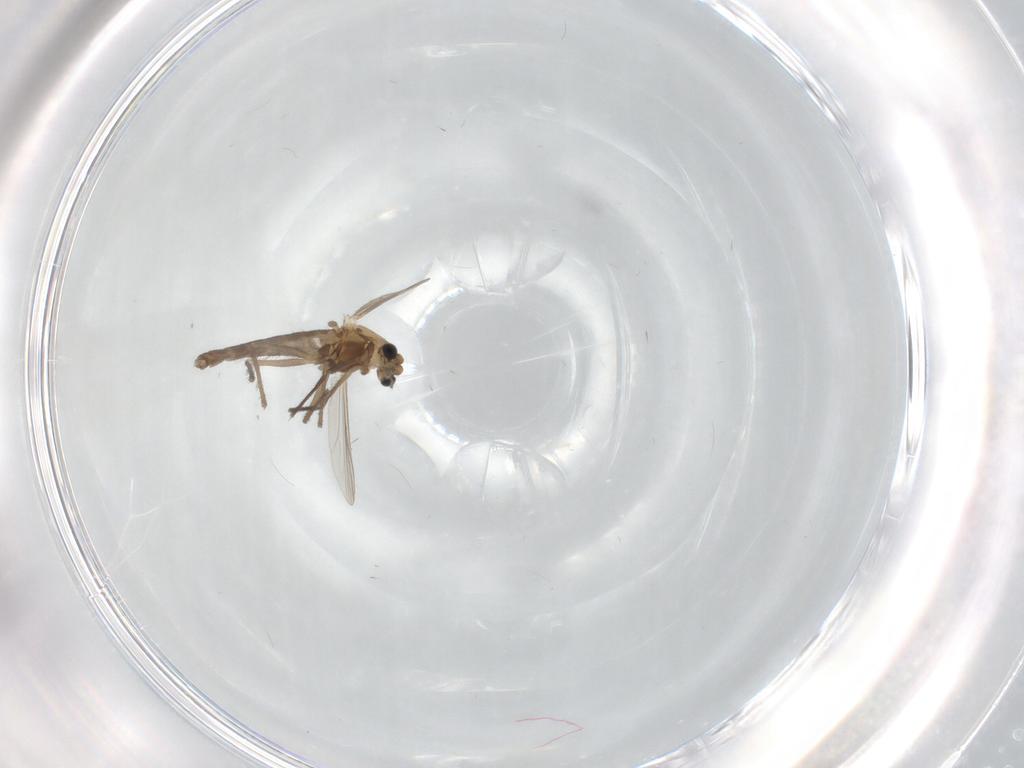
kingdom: Animalia
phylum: Arthropoda
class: Insecta
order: Diptera
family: Chironomidae
